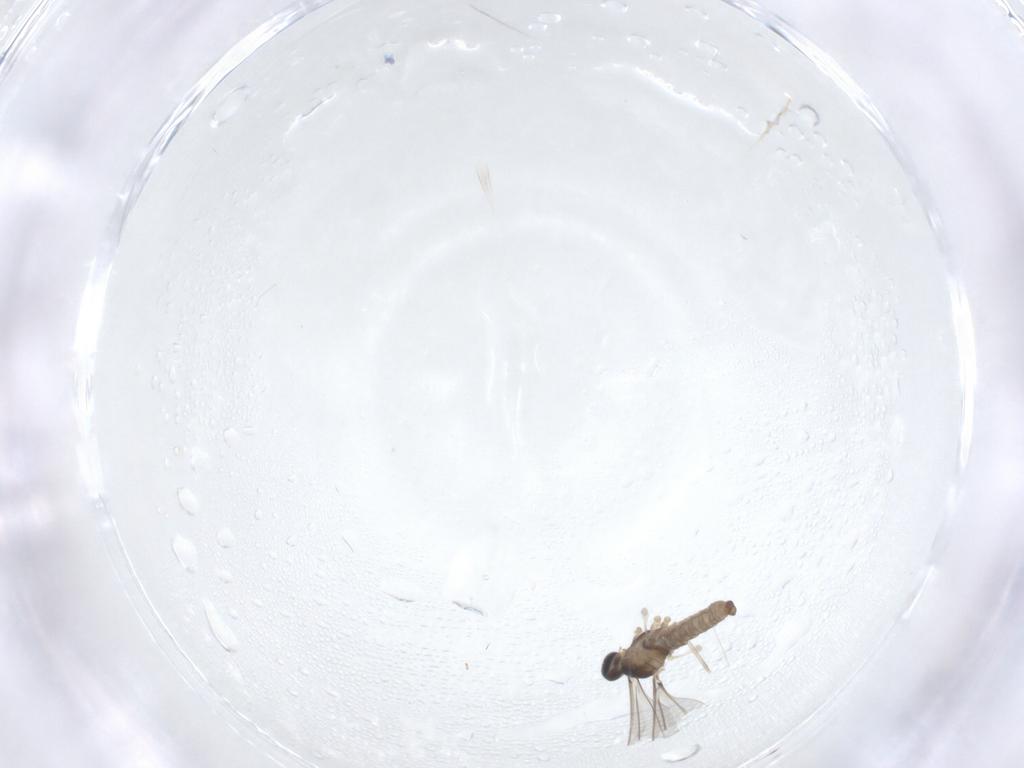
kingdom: Animalia
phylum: Arthropoda
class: Insecta
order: Diptera
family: Cecidomyiidae
